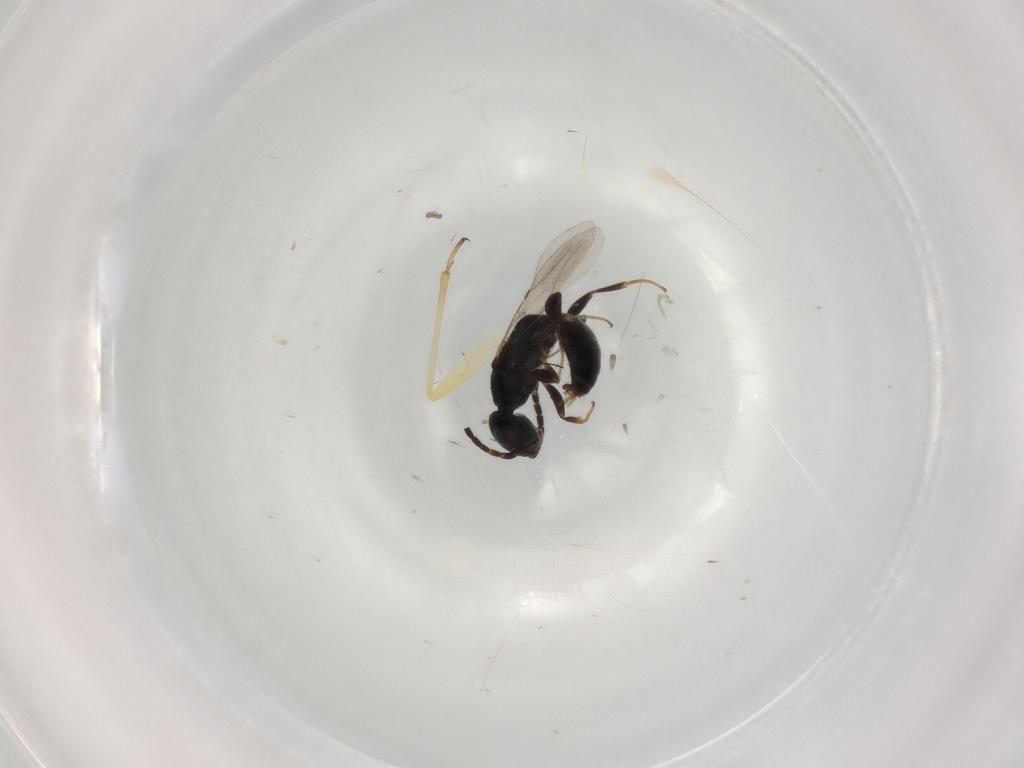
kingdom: Animalia
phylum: Arthropoda
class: Insecta
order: Hymenoptera
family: Bethylidae
